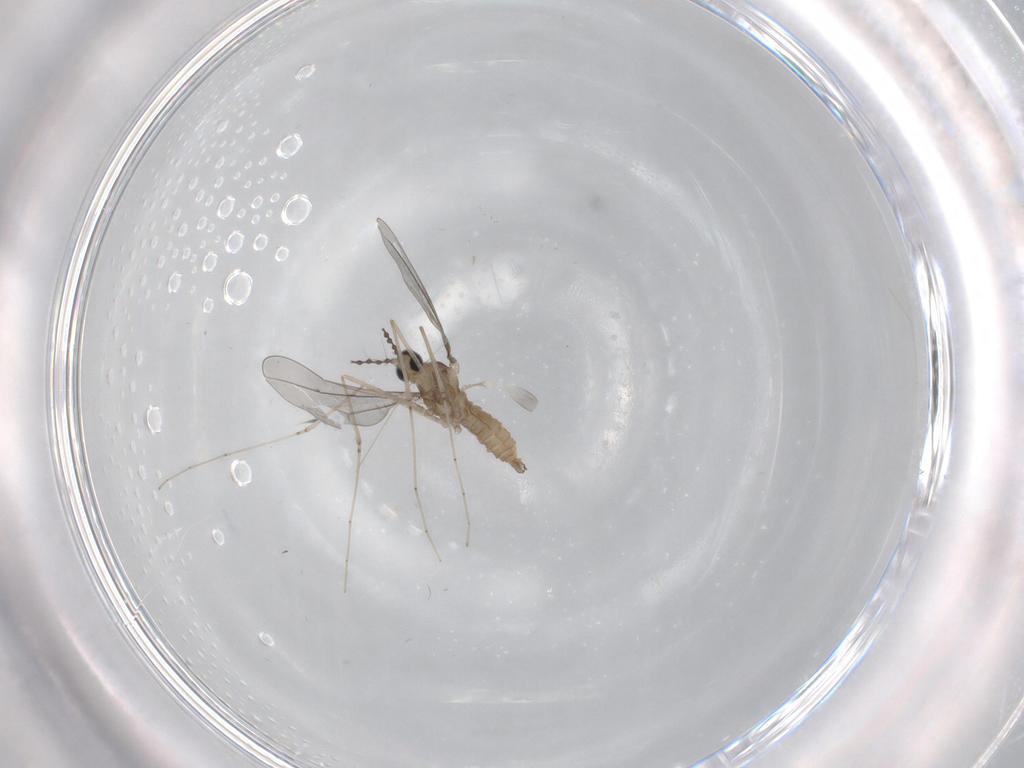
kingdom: Animalia
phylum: Arthropoda
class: Insecta
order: Diptera
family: Cecidomyiidae
